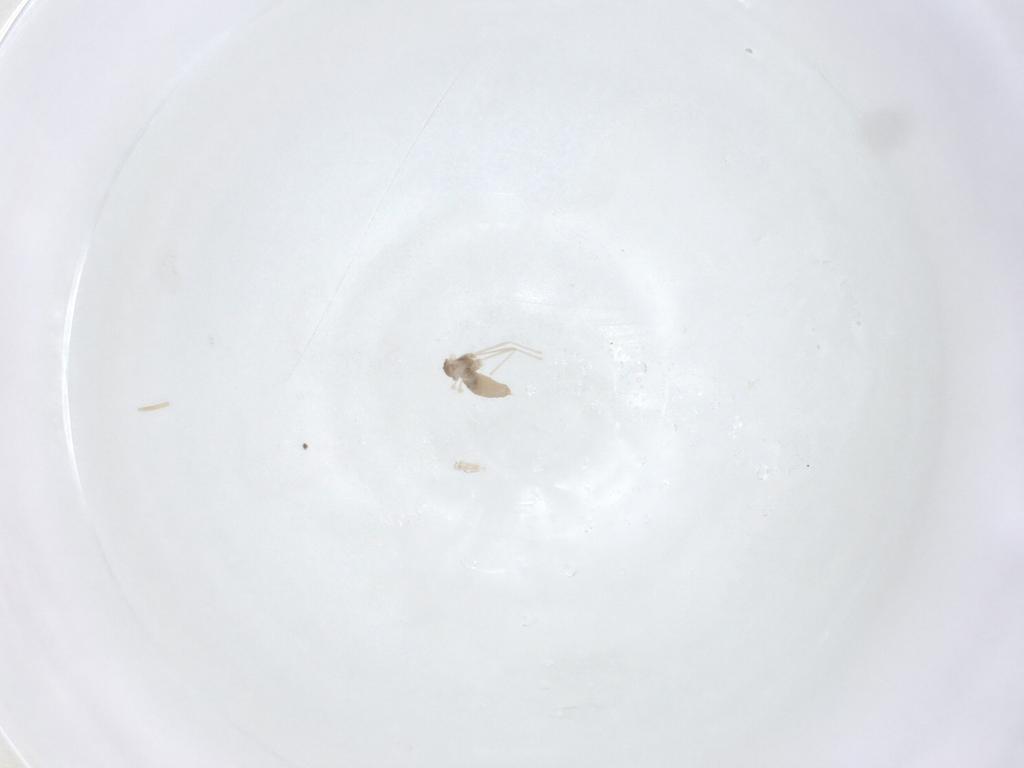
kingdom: Animalia
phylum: Arthropoda
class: Insecta
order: Diptera
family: Cecidomyiidae
